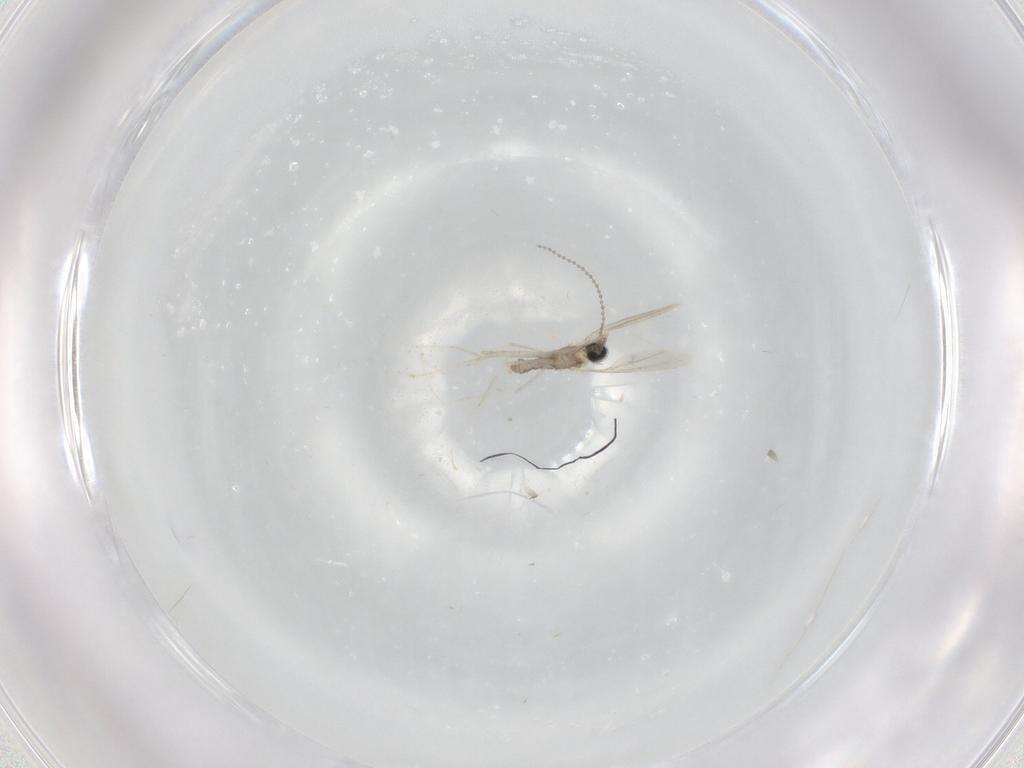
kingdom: Animalia
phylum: Arthropoda
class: Insecta
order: Diptera
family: Cecidomyiidae
